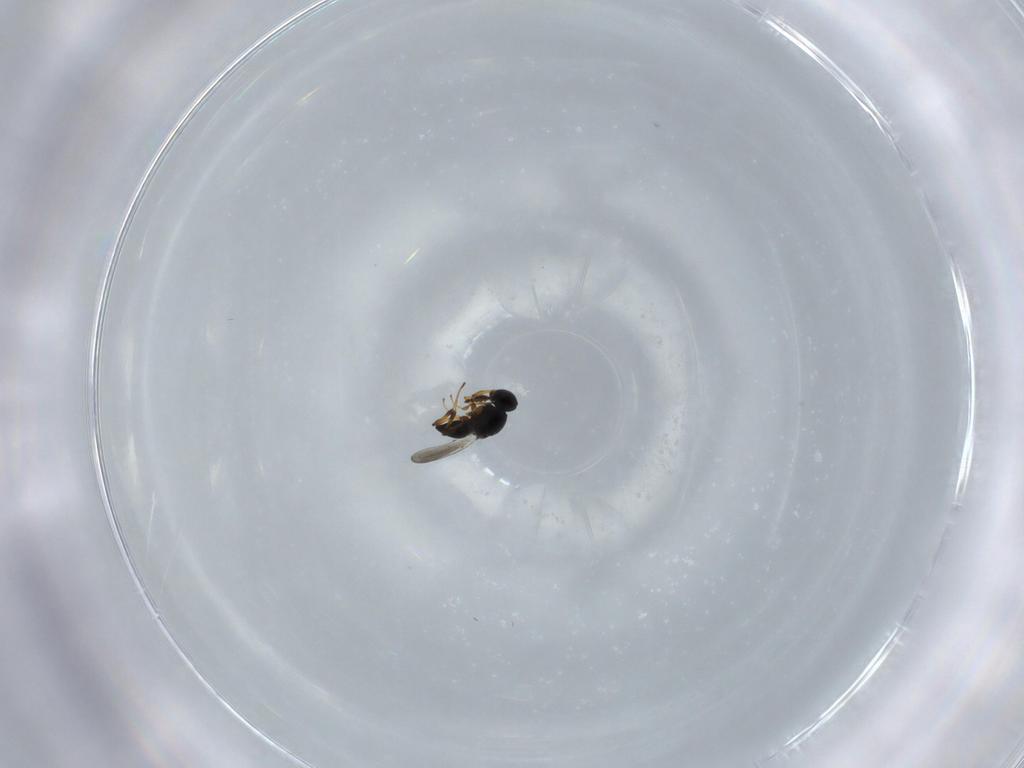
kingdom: Animalia
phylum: Arthropoda
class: Insecta
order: Hymenoptera
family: Platygastridae
